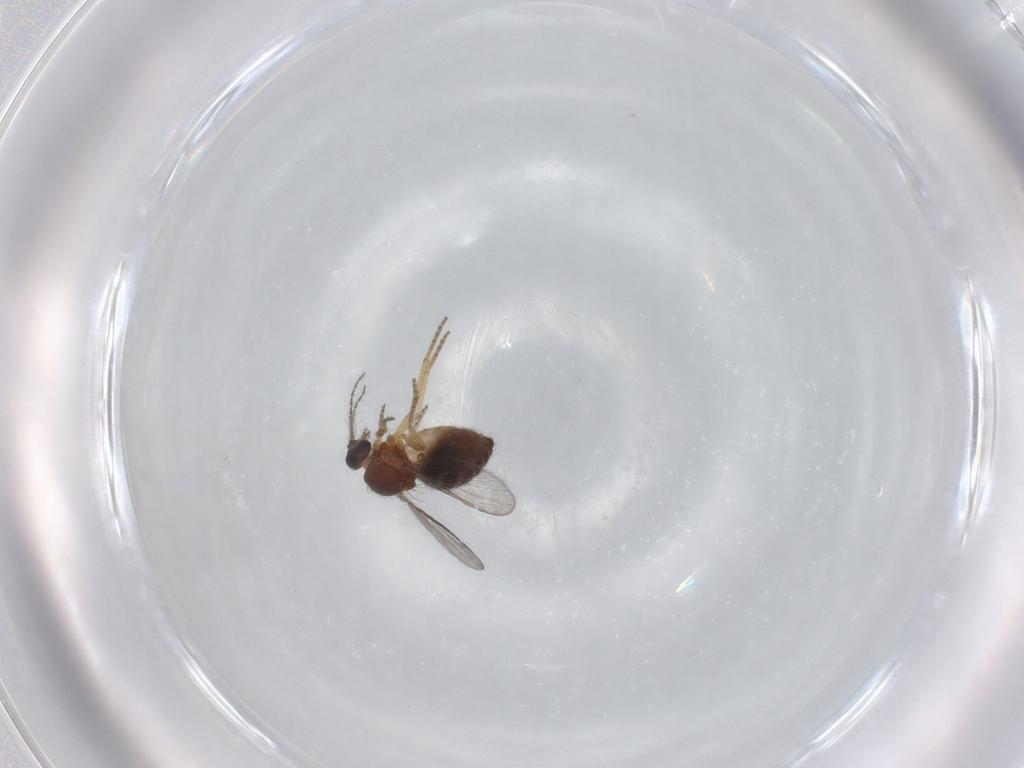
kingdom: Animalia
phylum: Arthropoda
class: Insecta
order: Diptera
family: Ceratopogonidae
